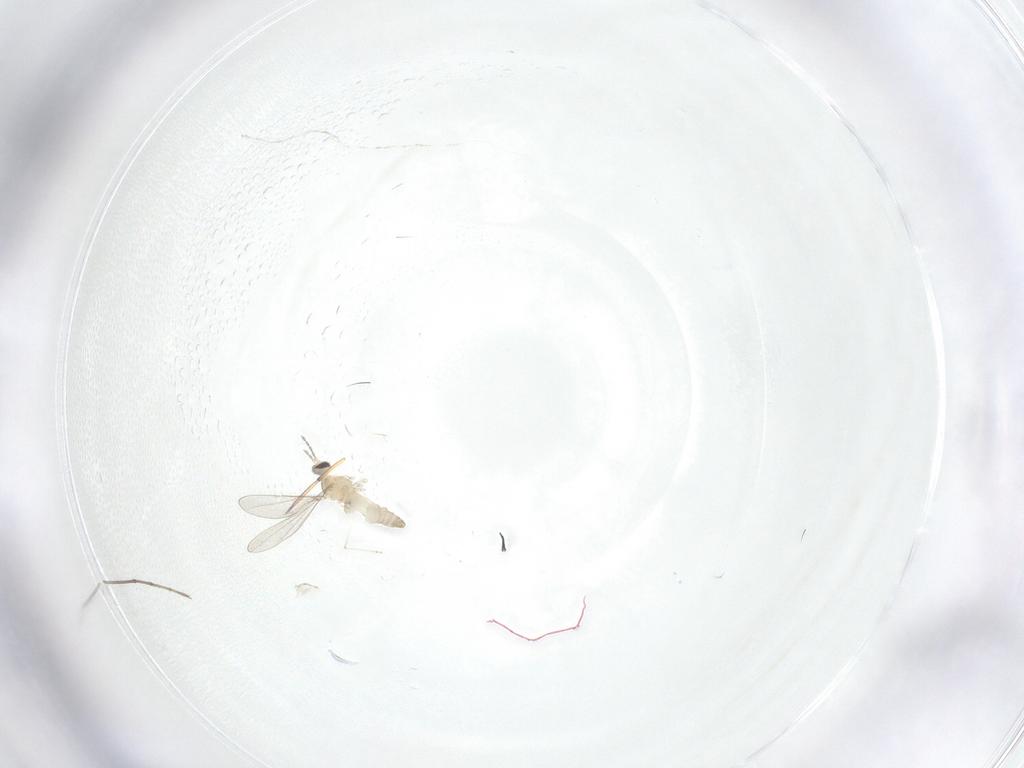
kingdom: Animalia
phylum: Arthropoda
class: Insecta
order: Diptera
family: Cecidomyiidae
